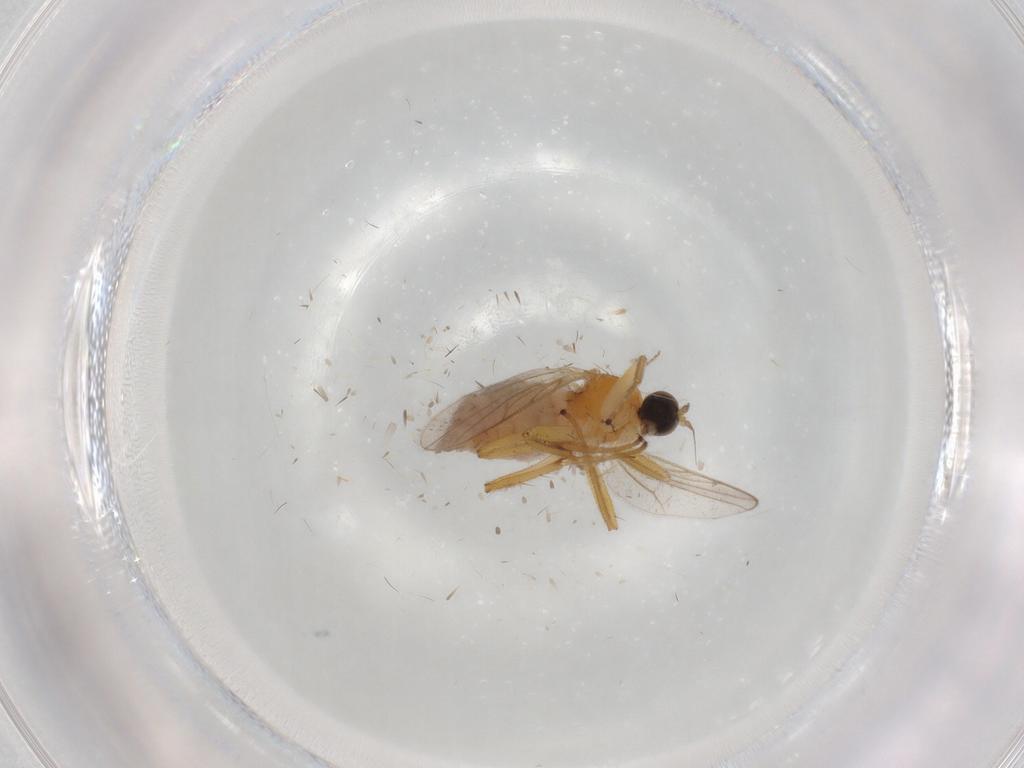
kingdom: Animalia
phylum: Arthropoda
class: Insecta
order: Diptera
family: Hybotidae
